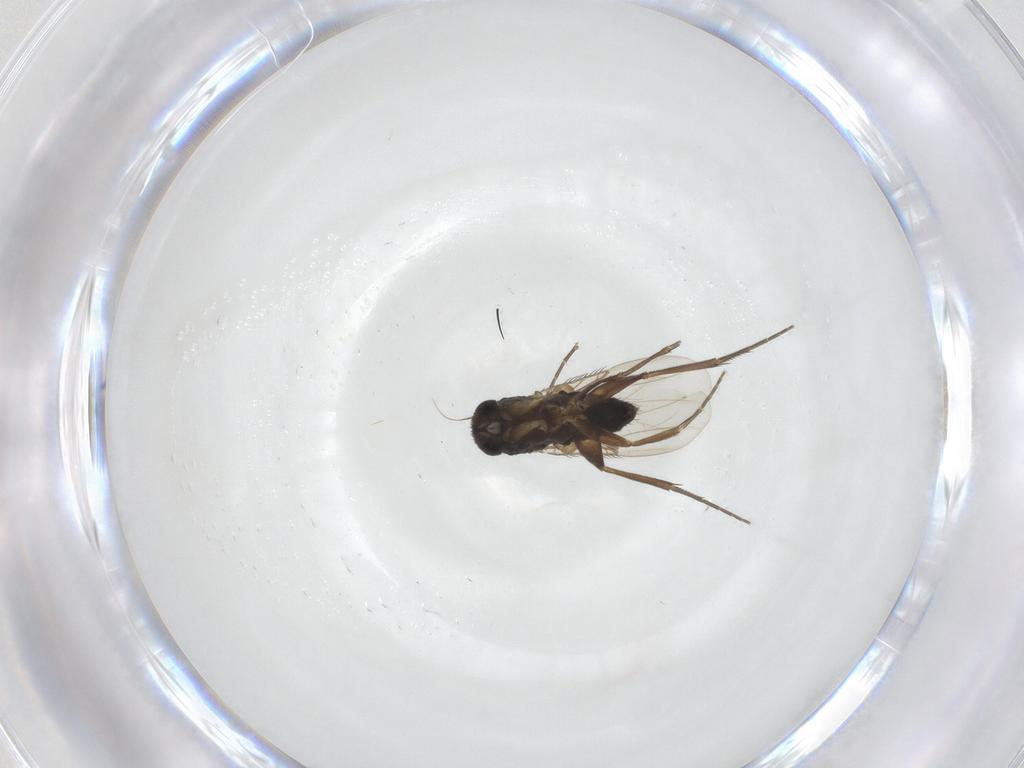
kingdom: Animalia
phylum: Arthropoda
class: Insecta
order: Diptera
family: Phoridae
